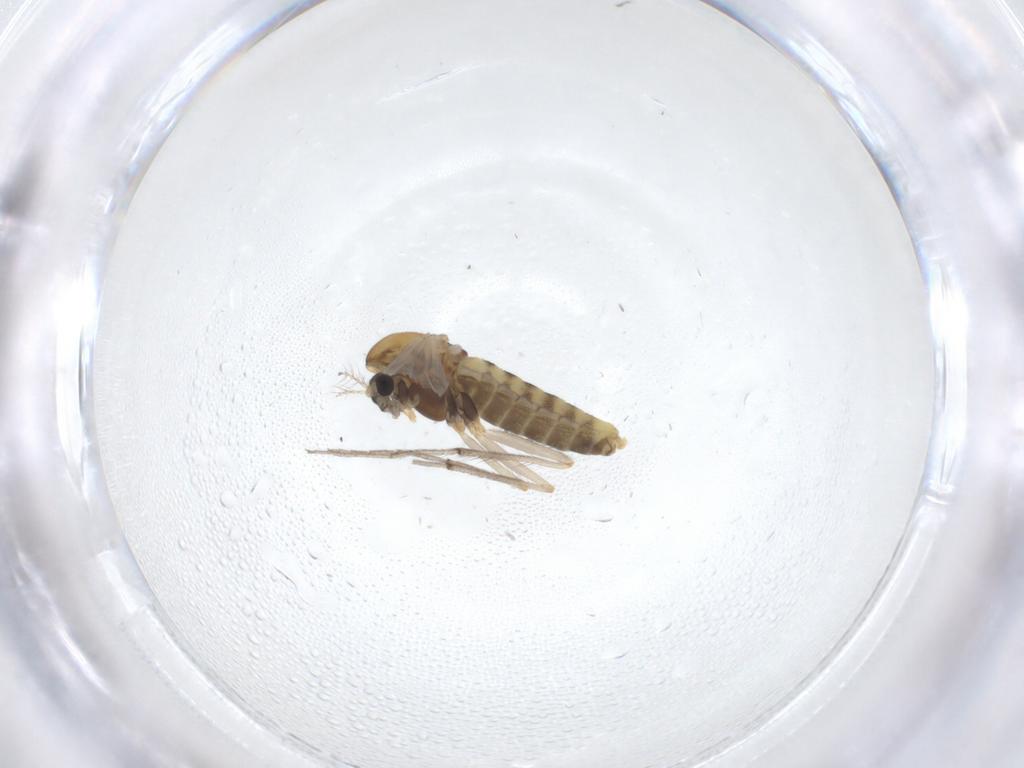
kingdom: Animalia
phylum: Arthropoda
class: Insecta
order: Diptera
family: Chironomidae
